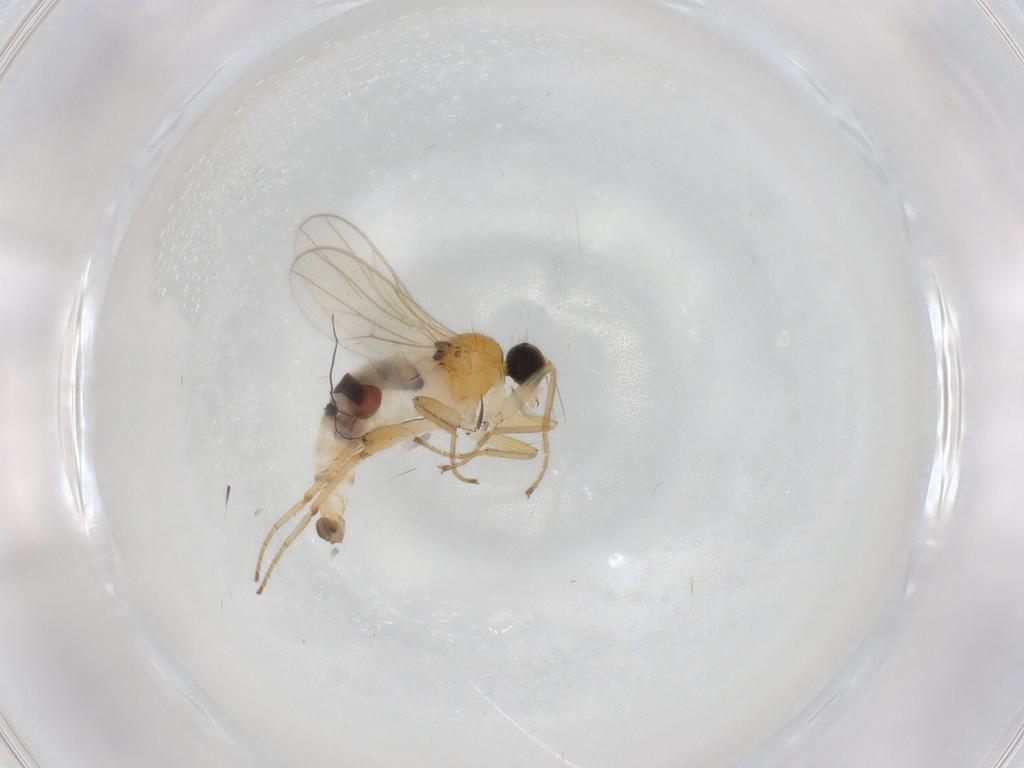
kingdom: Animalia
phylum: Arthropoda
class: Insecta
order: Diptera
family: Hybotidae
